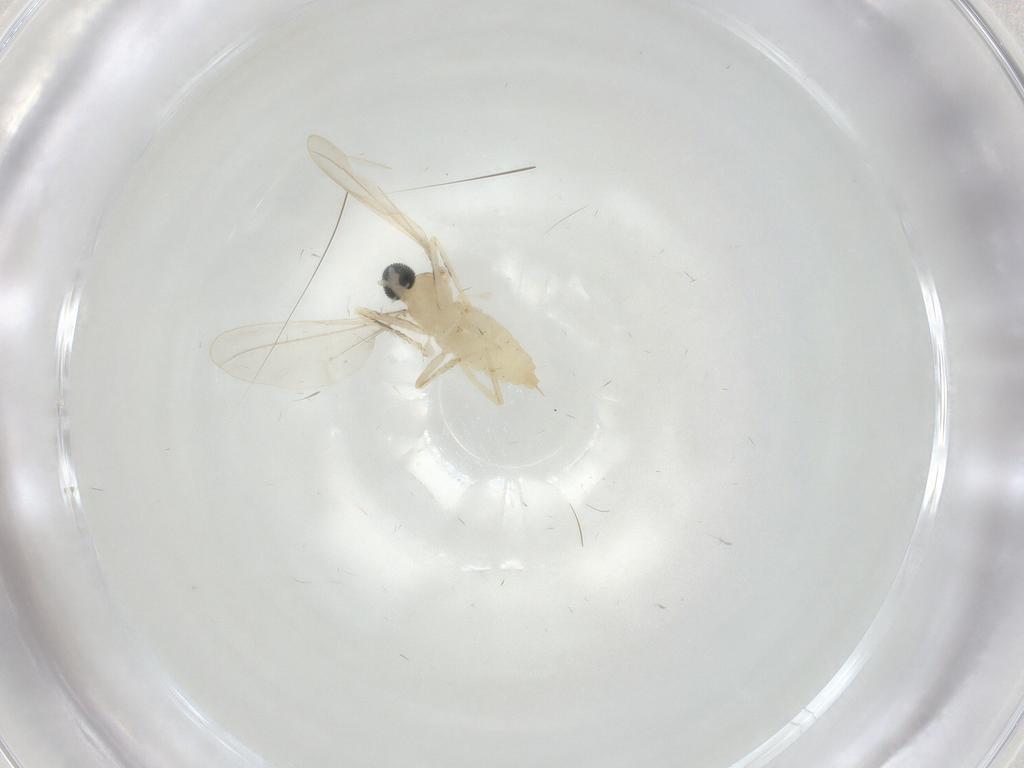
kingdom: Animalia
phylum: Arthropoda
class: Insecta
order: Diptera
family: Cecidomyiidae
